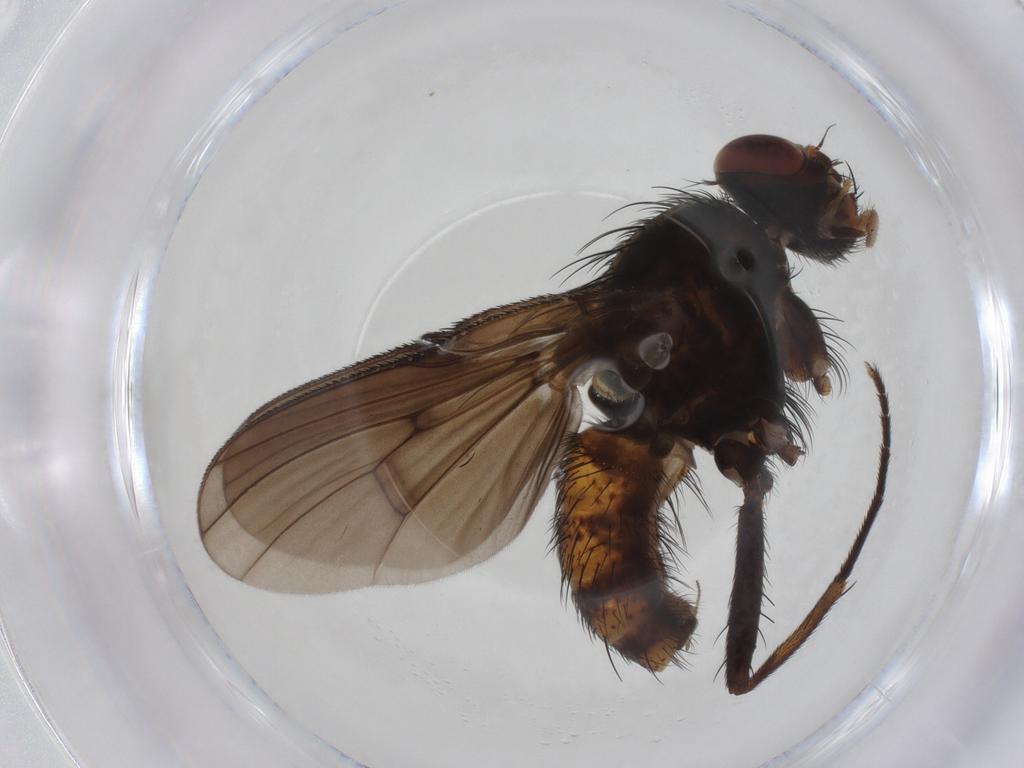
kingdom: Animalia
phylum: Arthropoda
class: Insecta
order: Diptera
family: Muscidae
